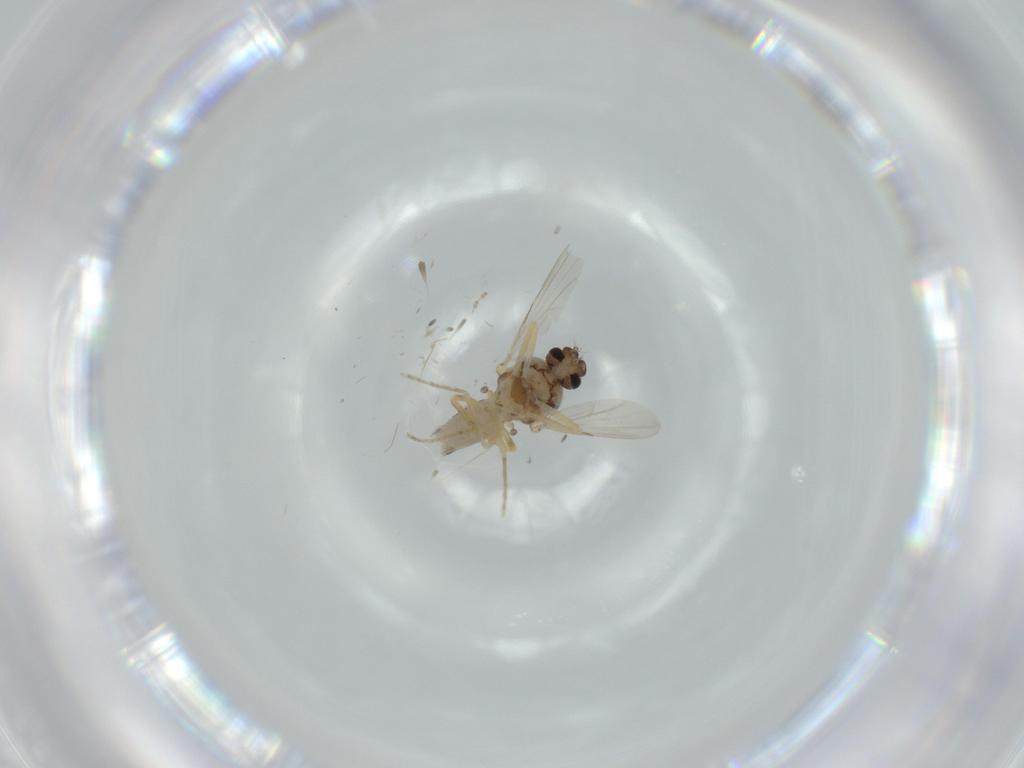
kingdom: Animalia
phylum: Arthropoda
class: Insecta
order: Diptera
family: Ceratopogonidae
